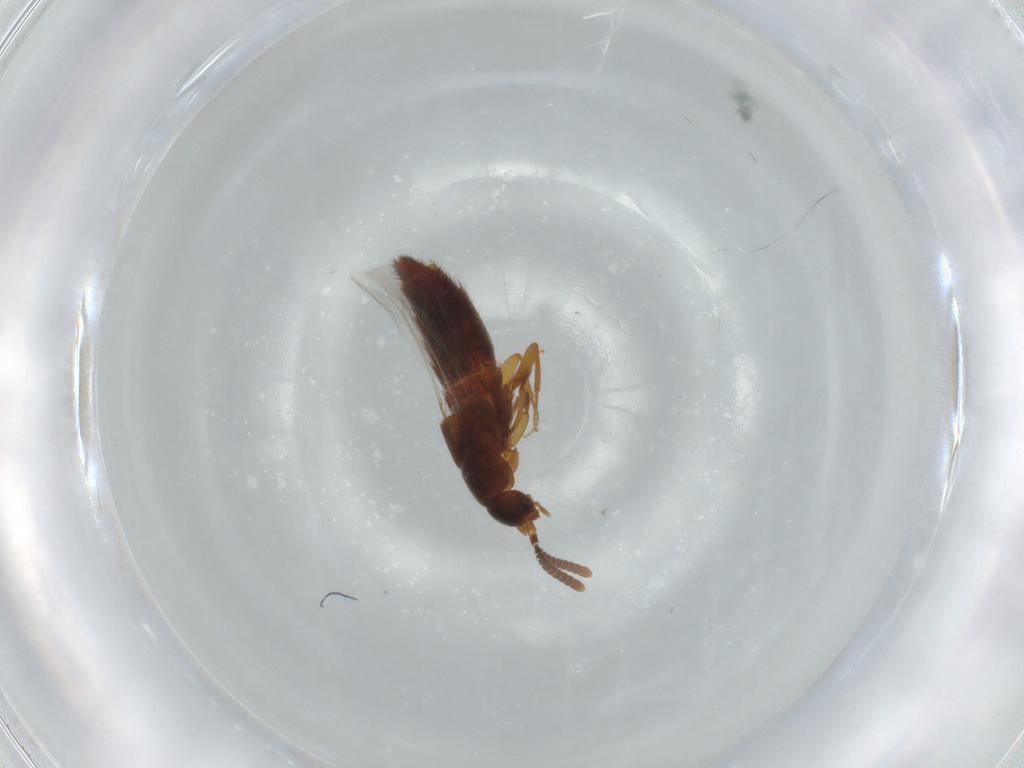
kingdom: Animalia
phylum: Arthropoda
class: Insecta
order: Coleoptera
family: Staphylinidae
